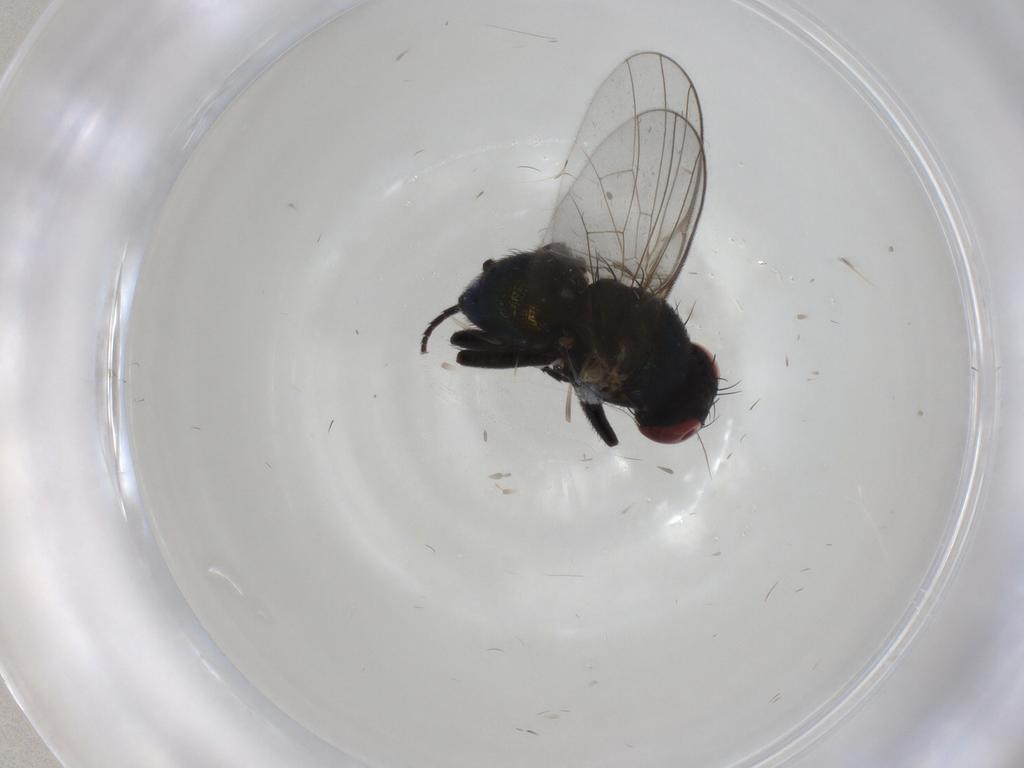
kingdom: Animalia
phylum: Arthropoda
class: Insecta
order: Diptera
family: Agromyzidae
